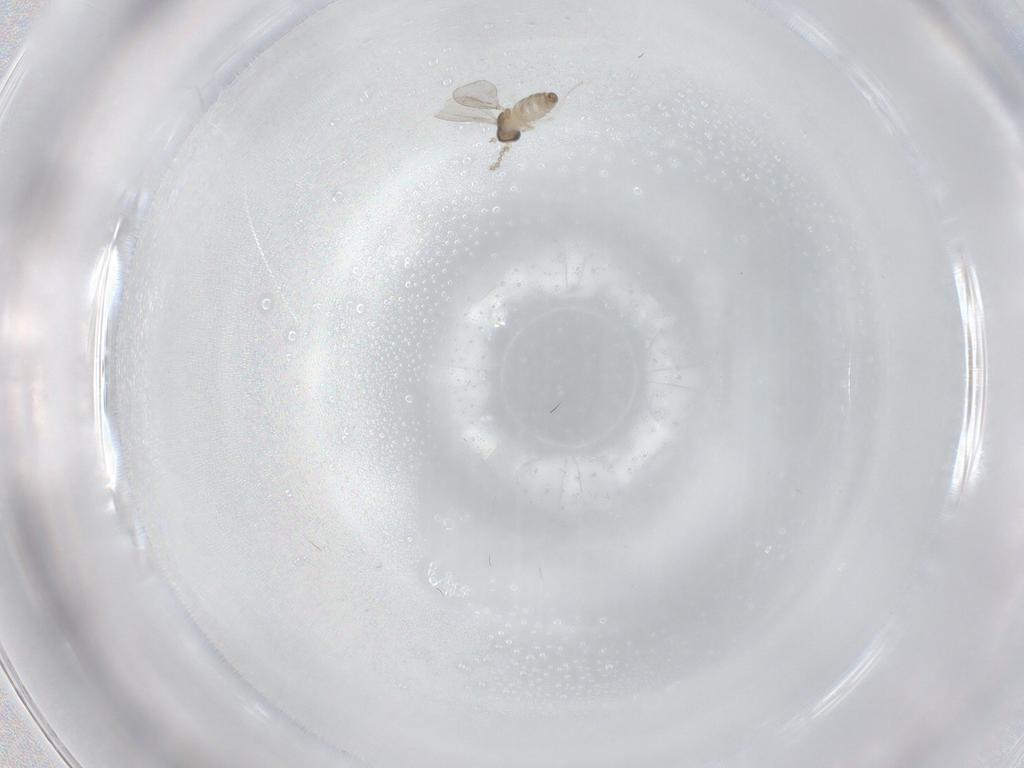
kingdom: Animalia
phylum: Arthropoda
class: Insecta
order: Diptera
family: Cecidomyiidae
